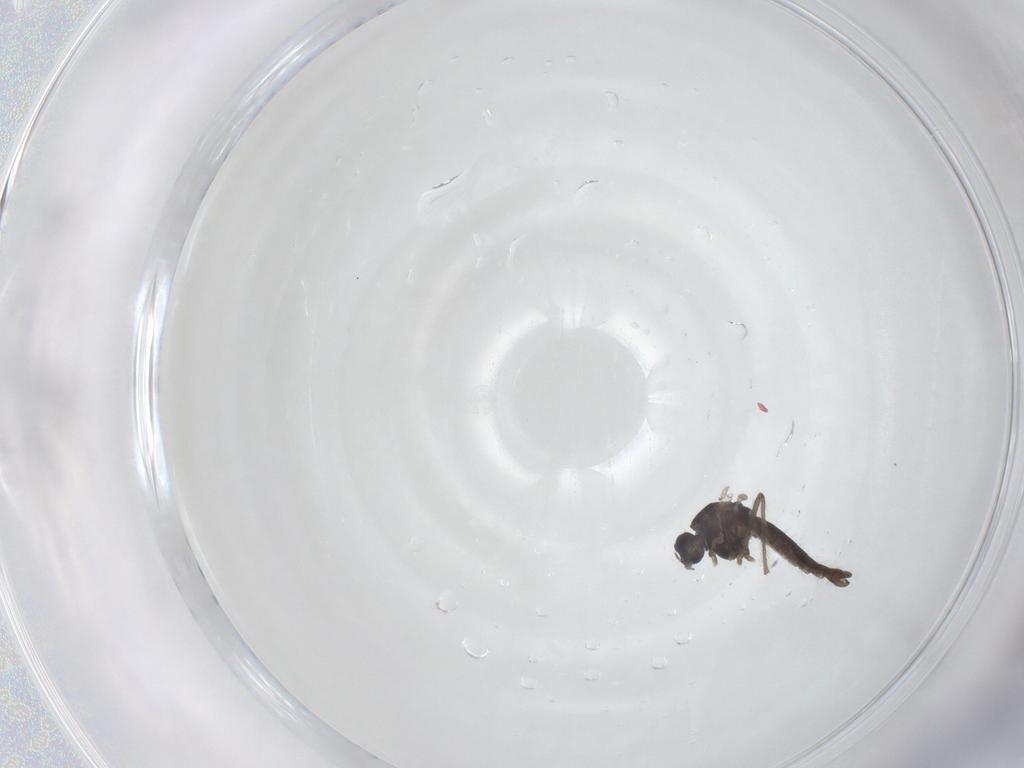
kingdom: Animalia
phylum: Arthropoda
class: Insecta
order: Diptera
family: Chironomidae
